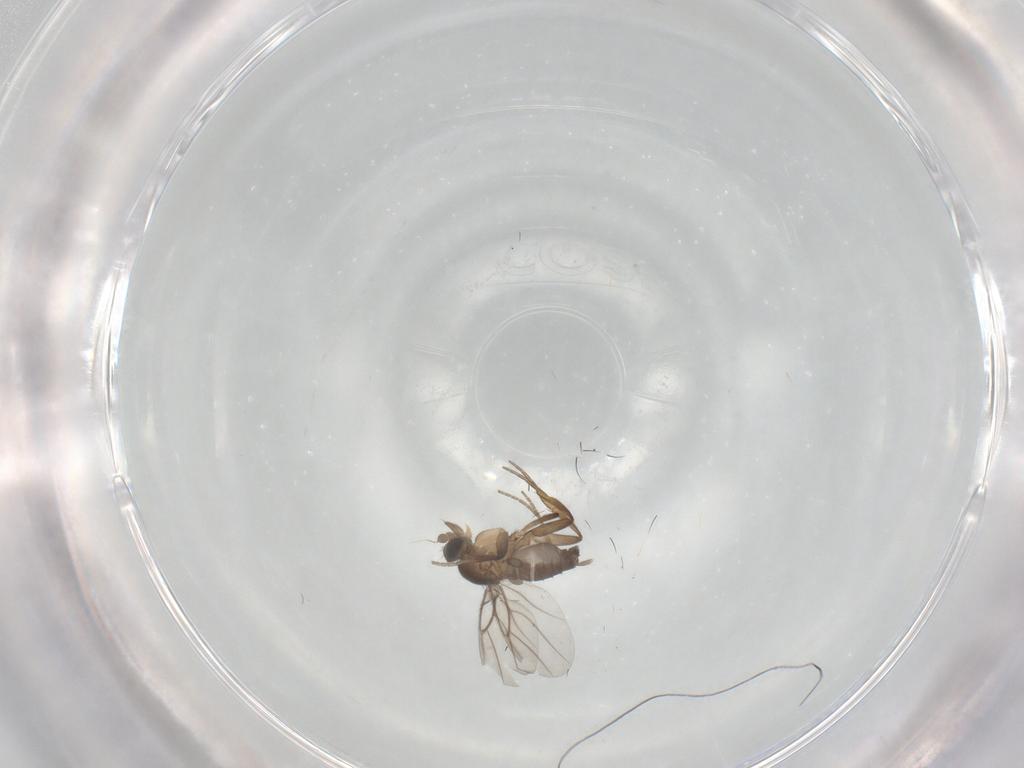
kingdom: Animalia
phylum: Arthropoda
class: Insecta
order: Diptera
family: Phoridae
